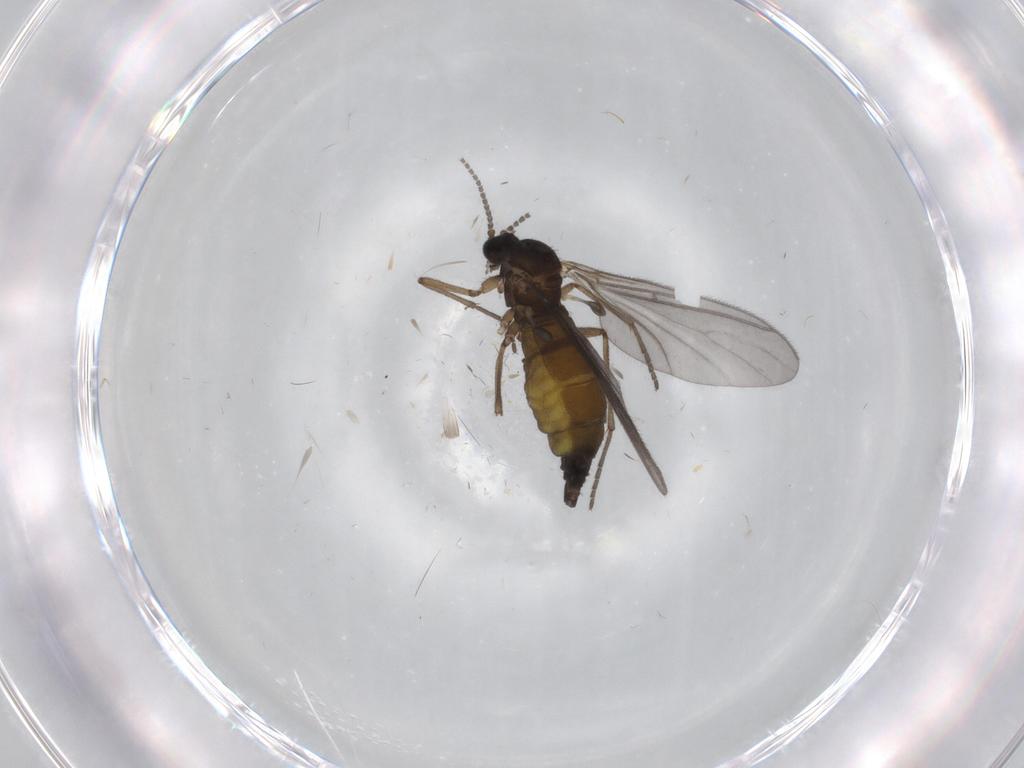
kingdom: Animalia
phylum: Arthropoda
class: Insecta
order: Diptera
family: Sciaridae
